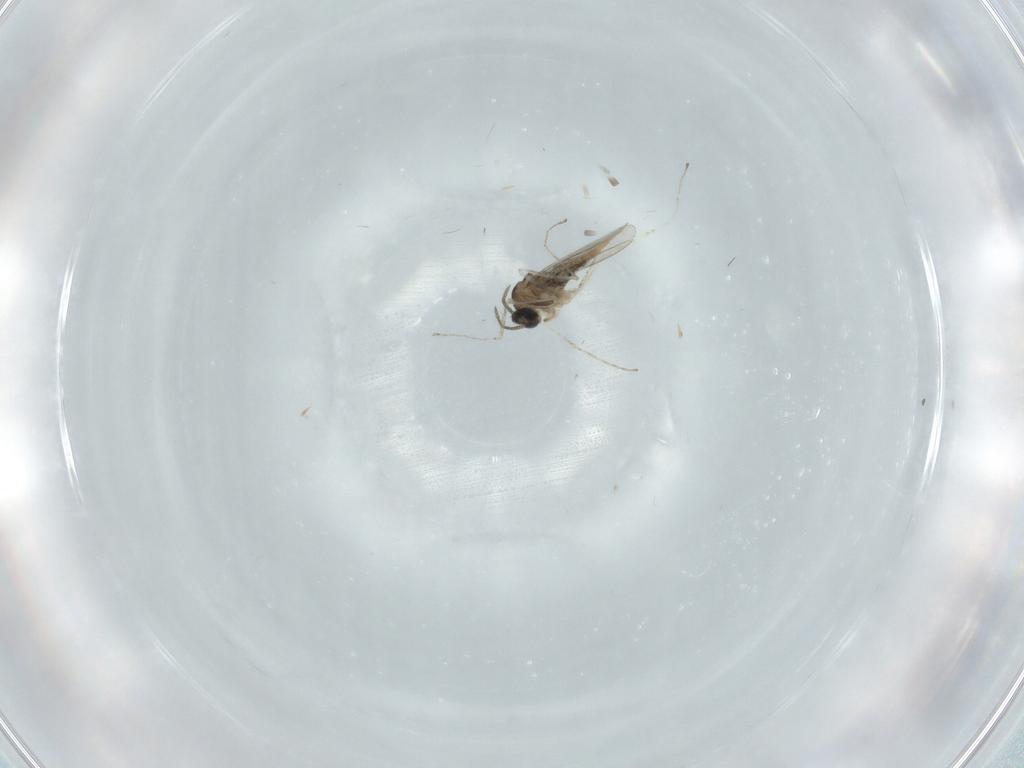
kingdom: Animalia
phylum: Arthropoda
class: Insecta
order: Diptera
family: Cecidomyiidae
